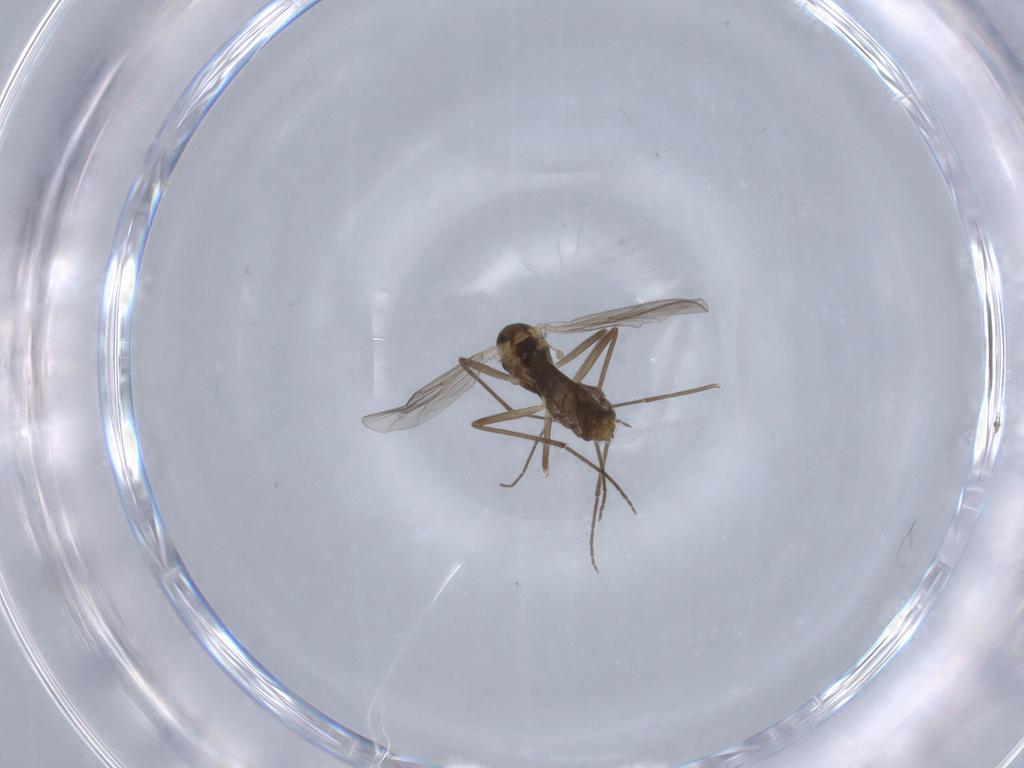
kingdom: Animalia
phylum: Arthropoda
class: Insecta
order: Diptera
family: Chironomidae
